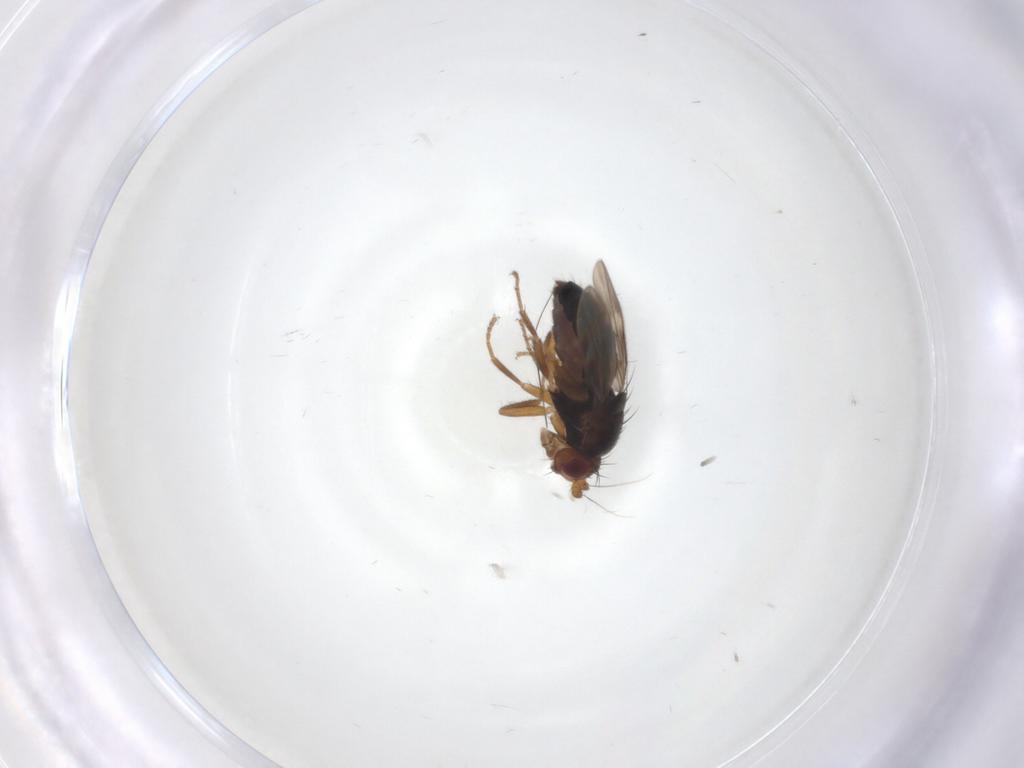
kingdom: Animalia
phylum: Arthropoda
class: Insecta
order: Diptera
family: Sphaeroceridae
